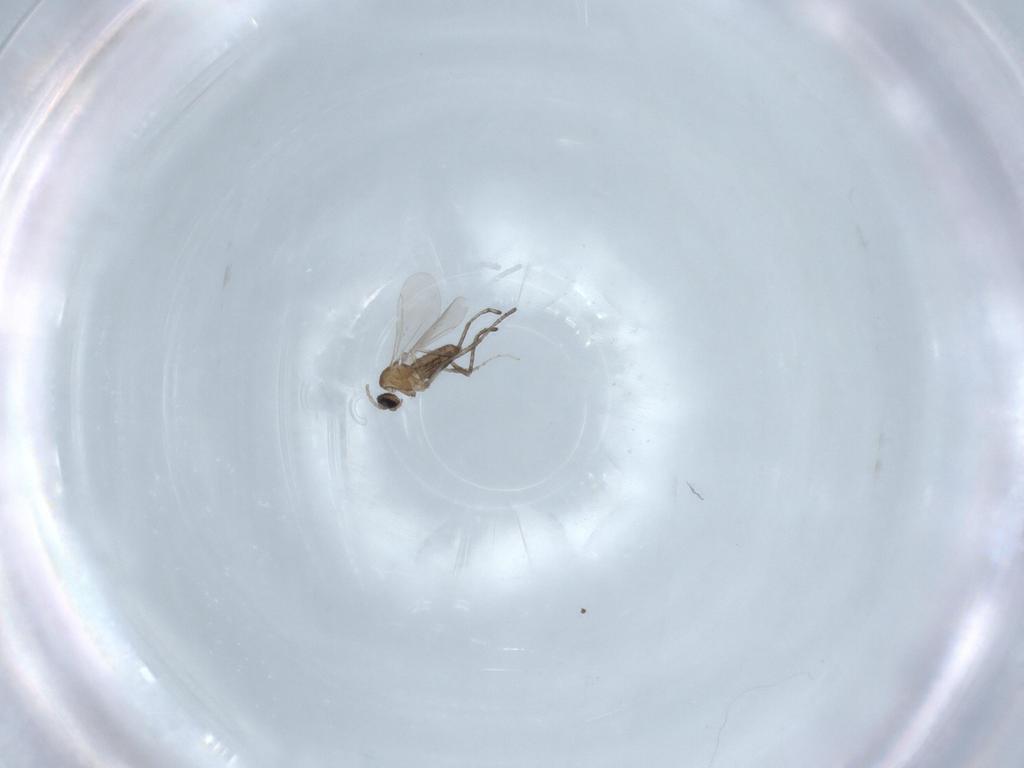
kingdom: Animalia
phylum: Arthropoda
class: Insecta
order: Diptera
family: Cecidomyiidae
